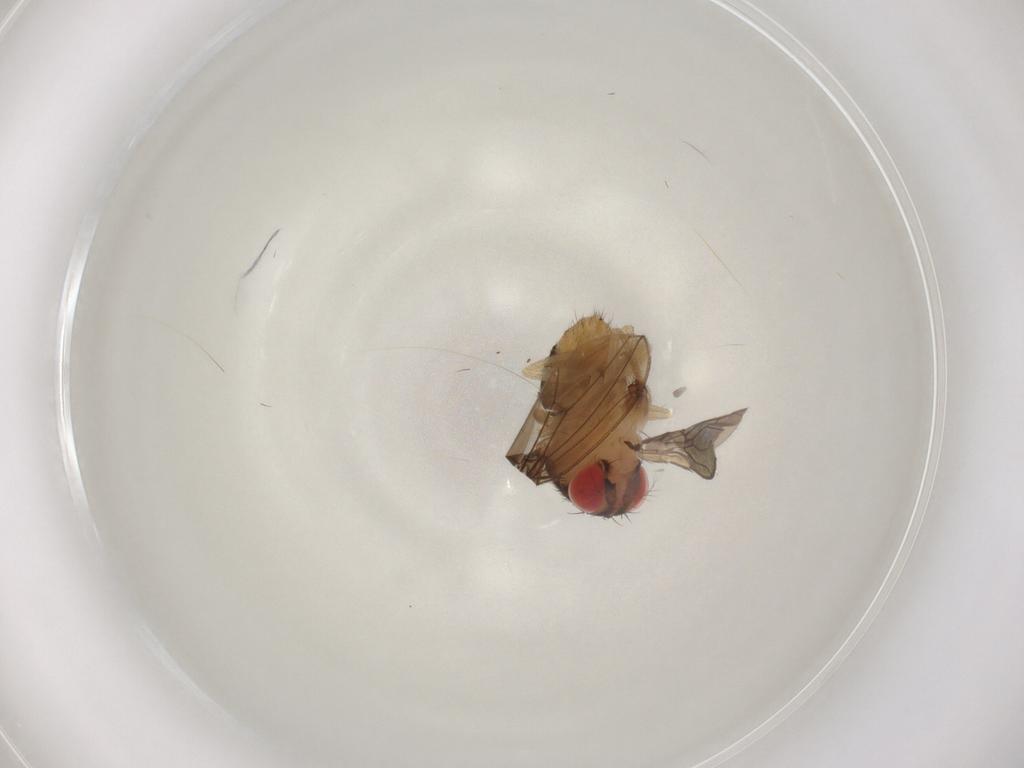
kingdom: Animalia
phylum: Arthropoda
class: Insecta
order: Diptera
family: Drosophilidae
